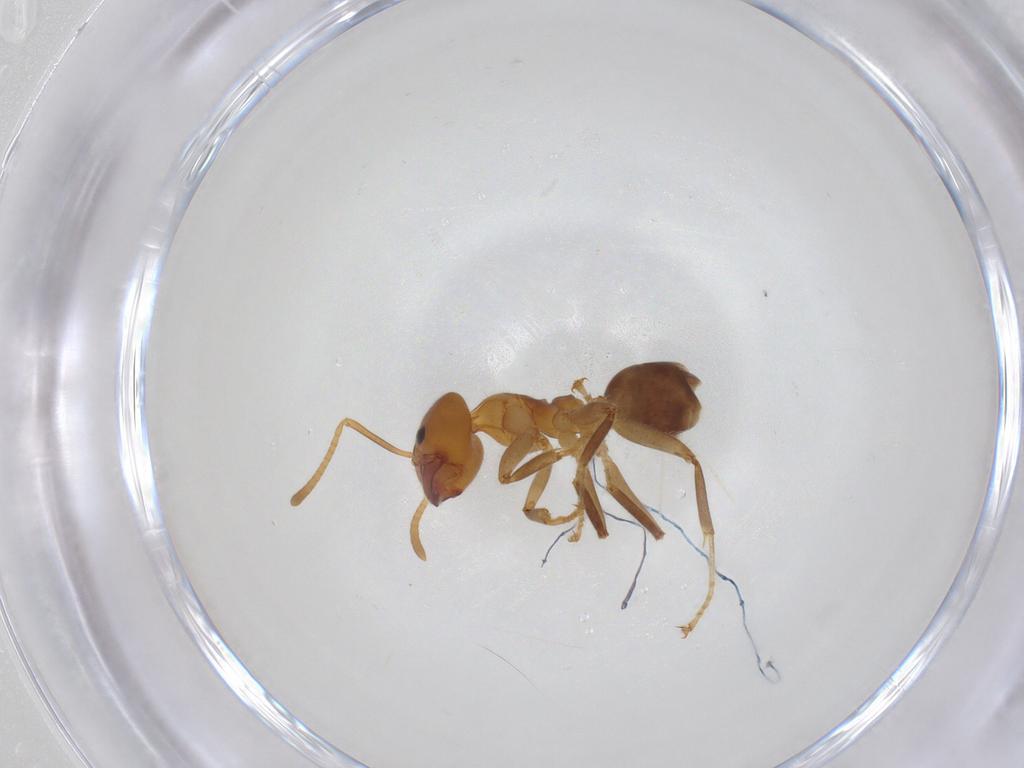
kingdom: Animalia
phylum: Arthropoda
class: Insecta
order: Hymenoptera
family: Formicidae
